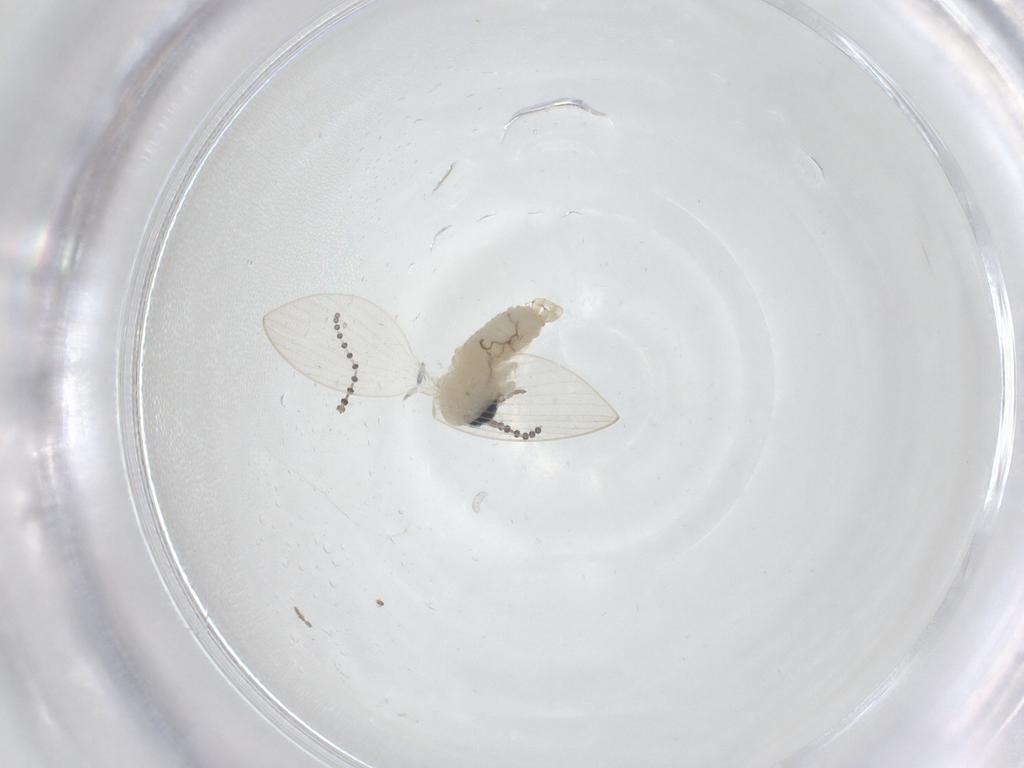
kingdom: Animalia
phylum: Arthropoda
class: Insecta
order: Diptera
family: Psychodidae
